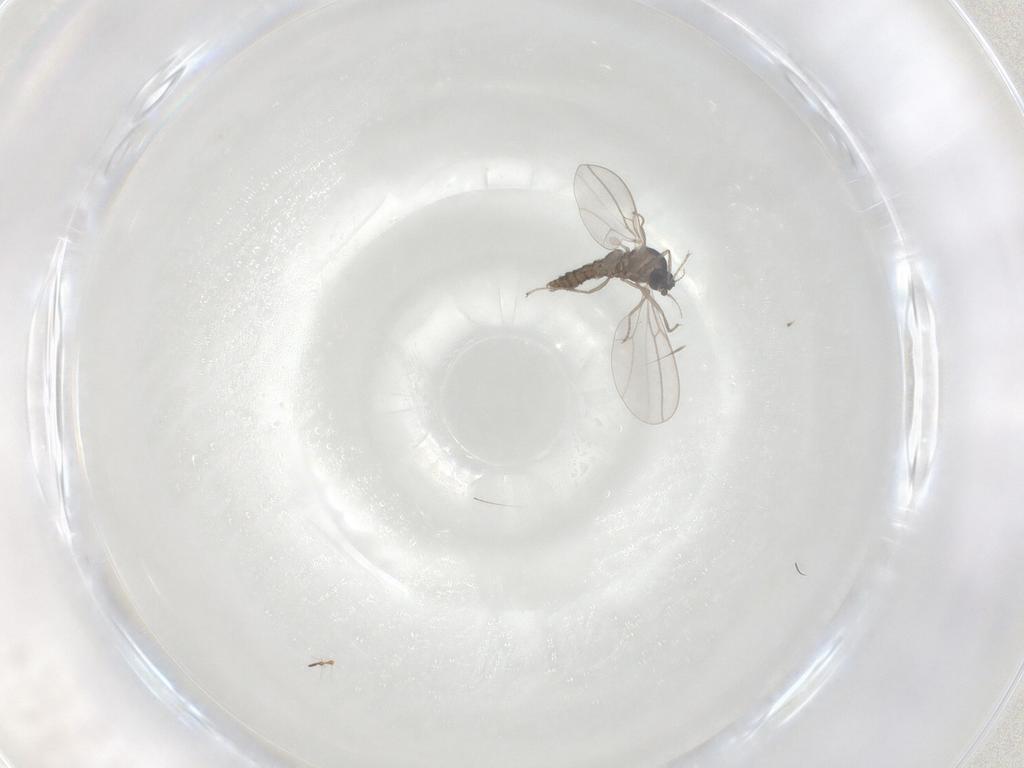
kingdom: Animalia
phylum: Arthropoda
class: Insecta
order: Diptera
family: Cecidomyiidae
